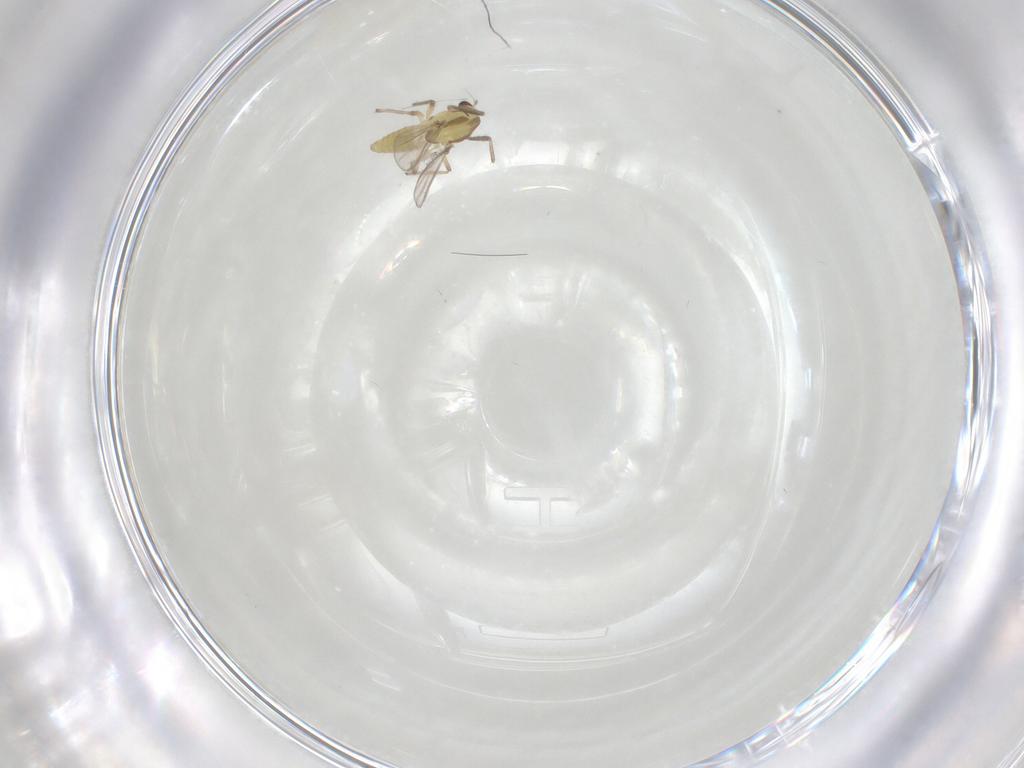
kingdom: Animalia
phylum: Arthropoda
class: Insecta
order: Diptera
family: Chironomidae
